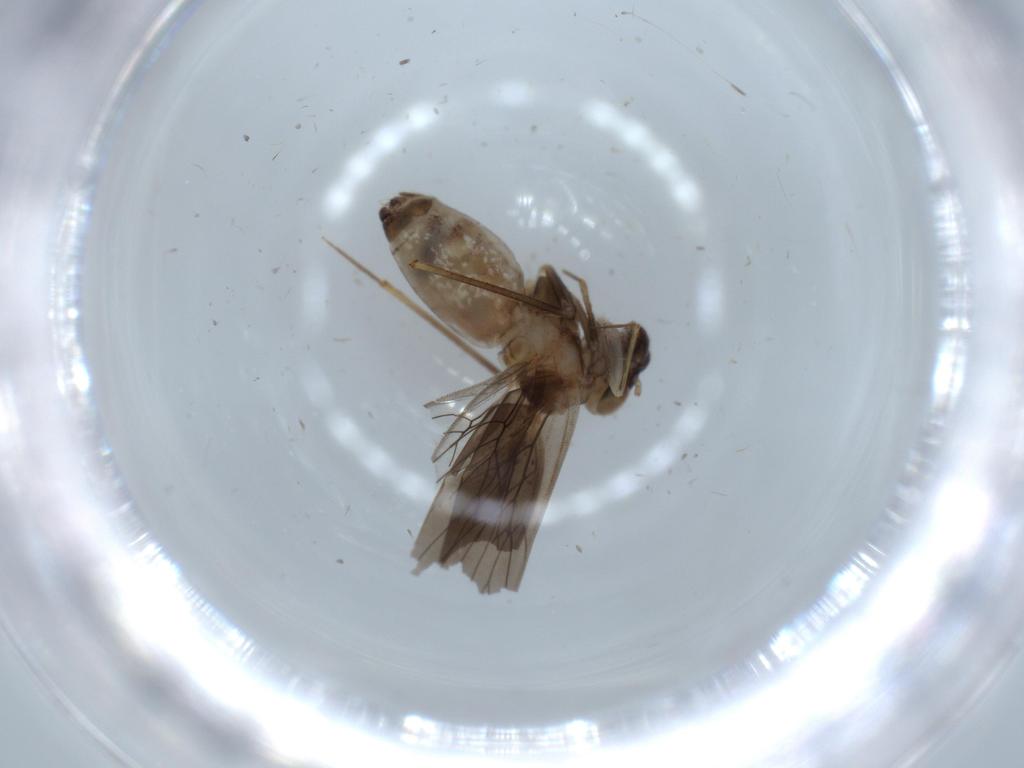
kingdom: Animalia
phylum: Arthropoda
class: Insecta
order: Psocodea
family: Lepidopsocidae
